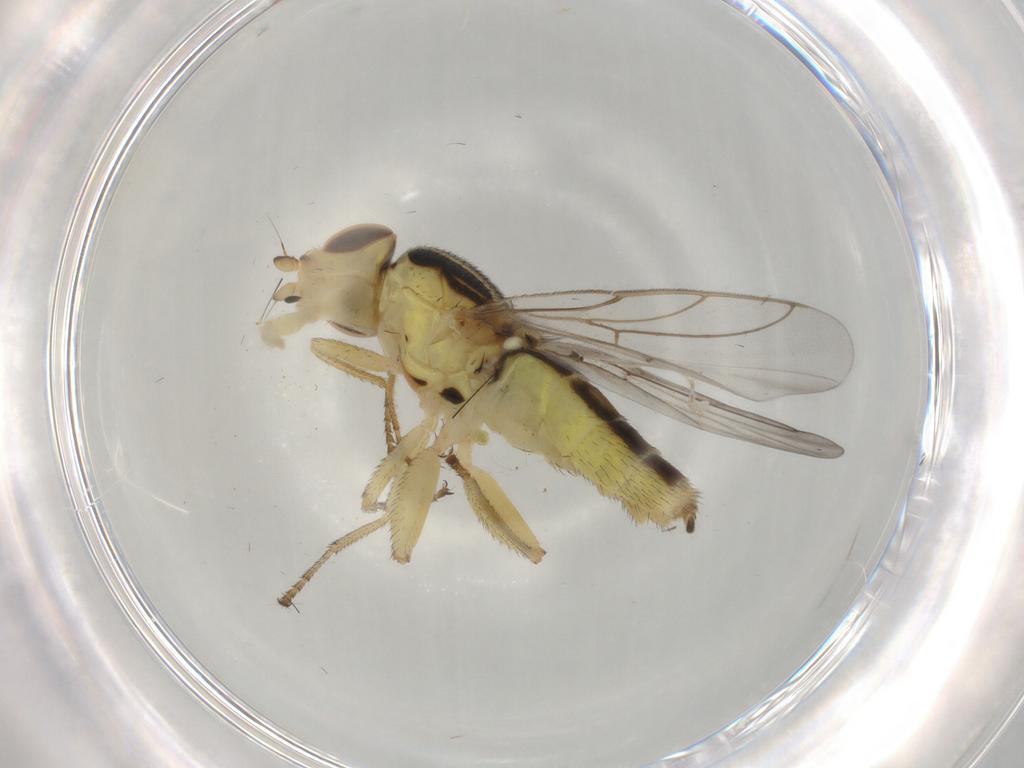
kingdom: Animalia
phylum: Arthropoda
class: Insecta
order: Diptera
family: Chloropidae
